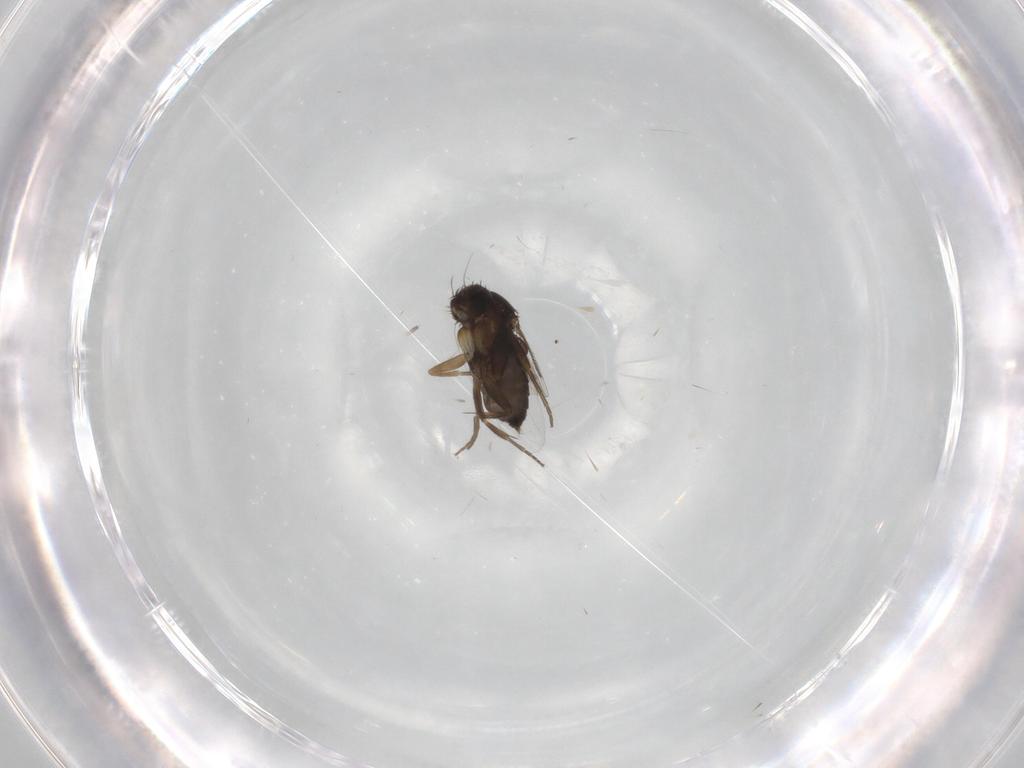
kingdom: Animalia
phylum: Arthropoda
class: Insecta
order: Diptera
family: Phoridae
